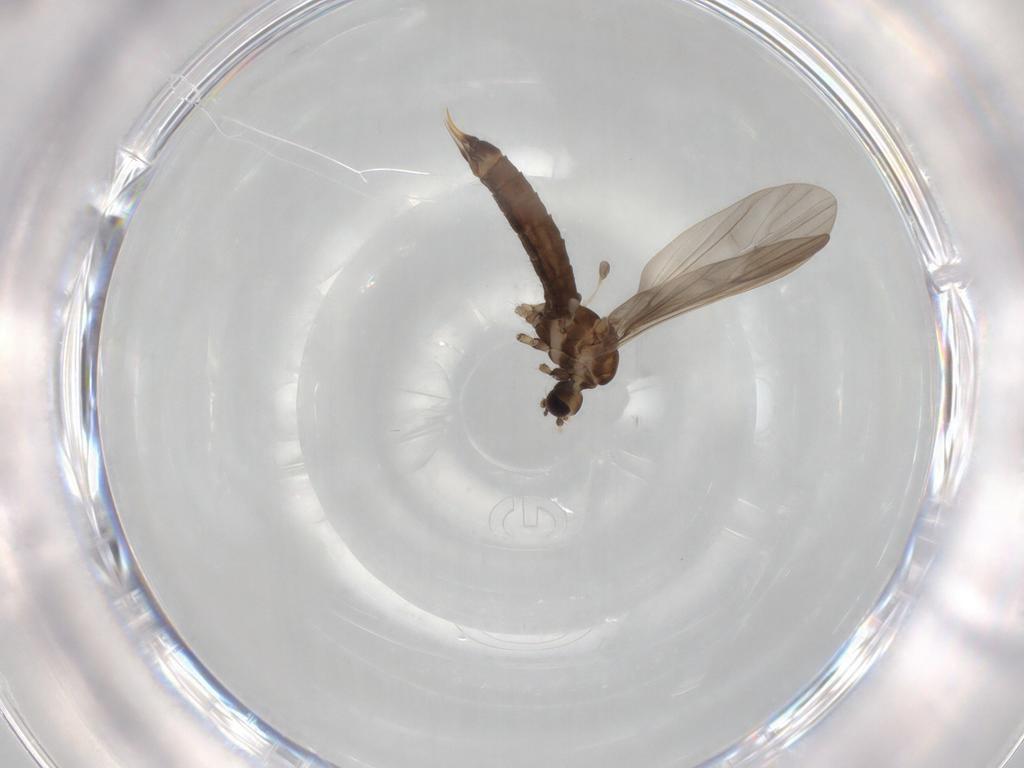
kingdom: Animalia
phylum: Arthropoda
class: Insecta
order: Diptera
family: Limoniidae
